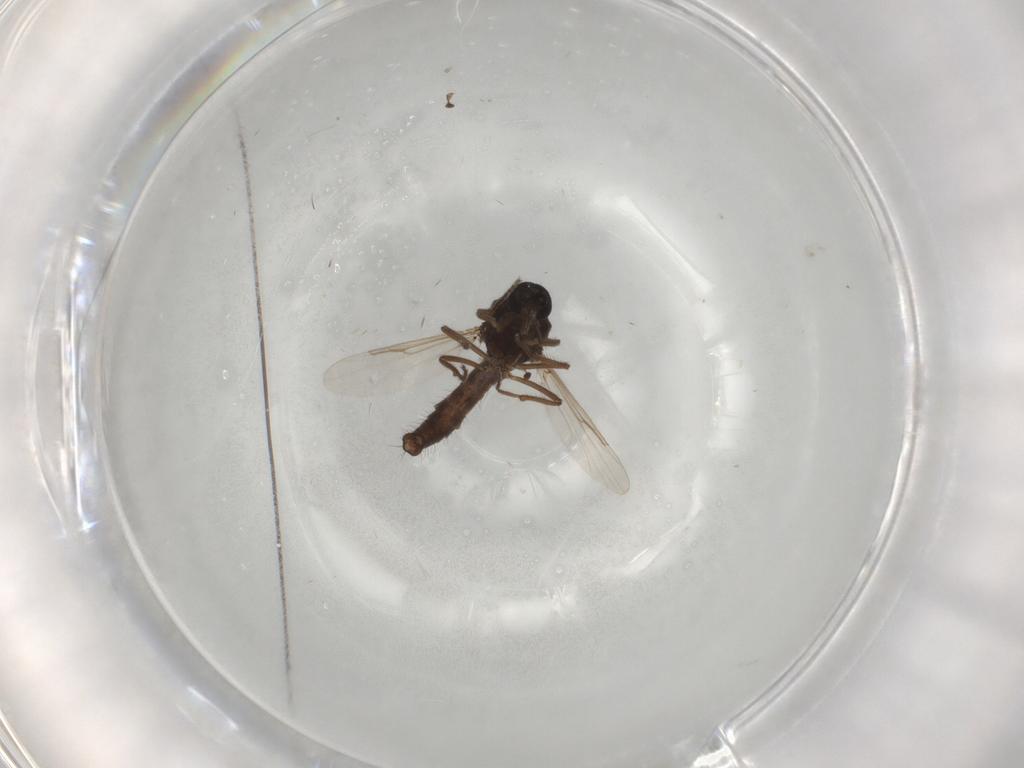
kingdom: Animalia
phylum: Arthropoda
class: Insecta
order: Diptera
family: Ceratopogonidae
